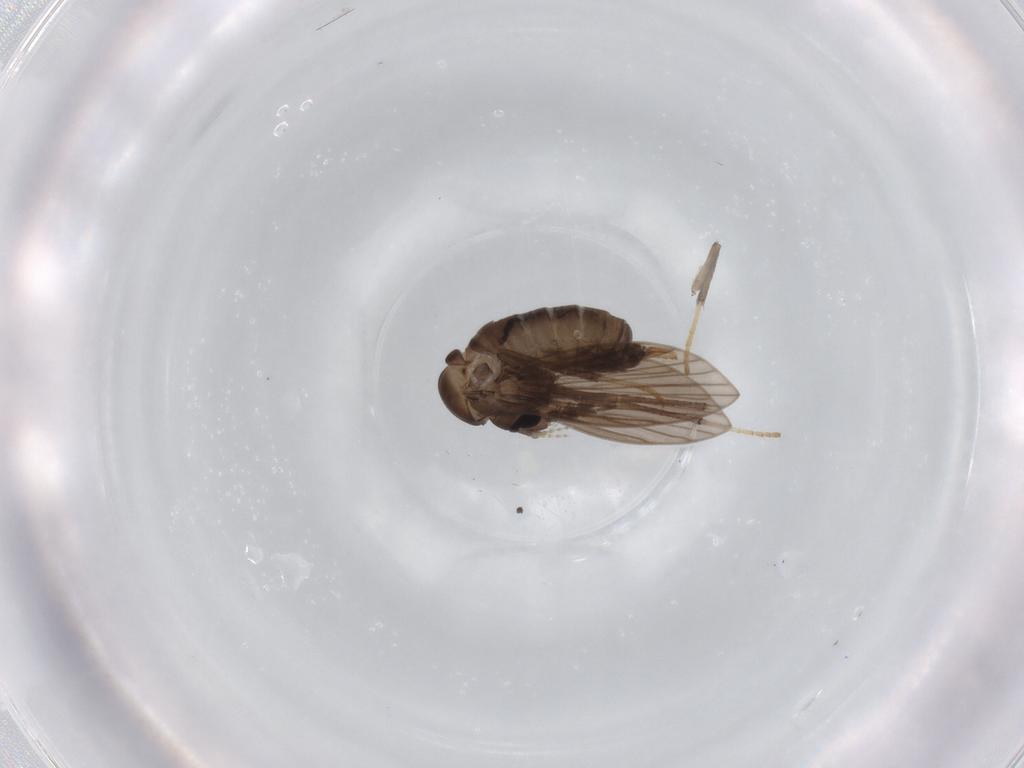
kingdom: Animalia
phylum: Arthropoda
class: Insecta
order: Diptera
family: Psychodidae
